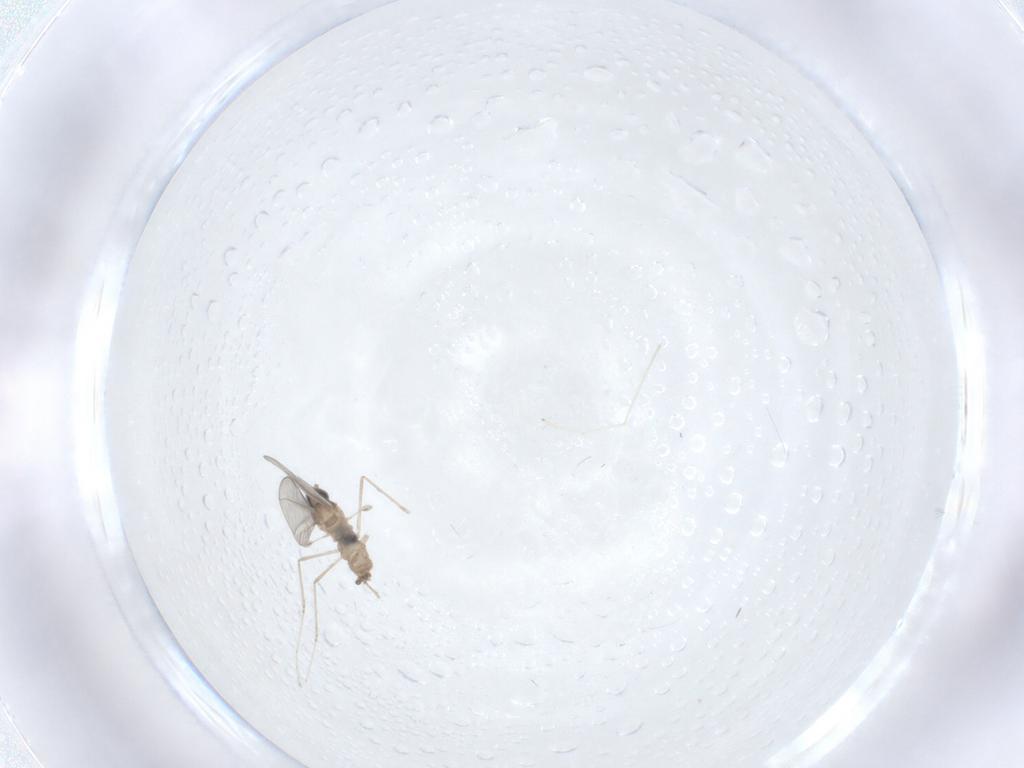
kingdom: Animalia
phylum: Arthropoda
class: Insecta
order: Diptera
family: Cecidomyiidae
